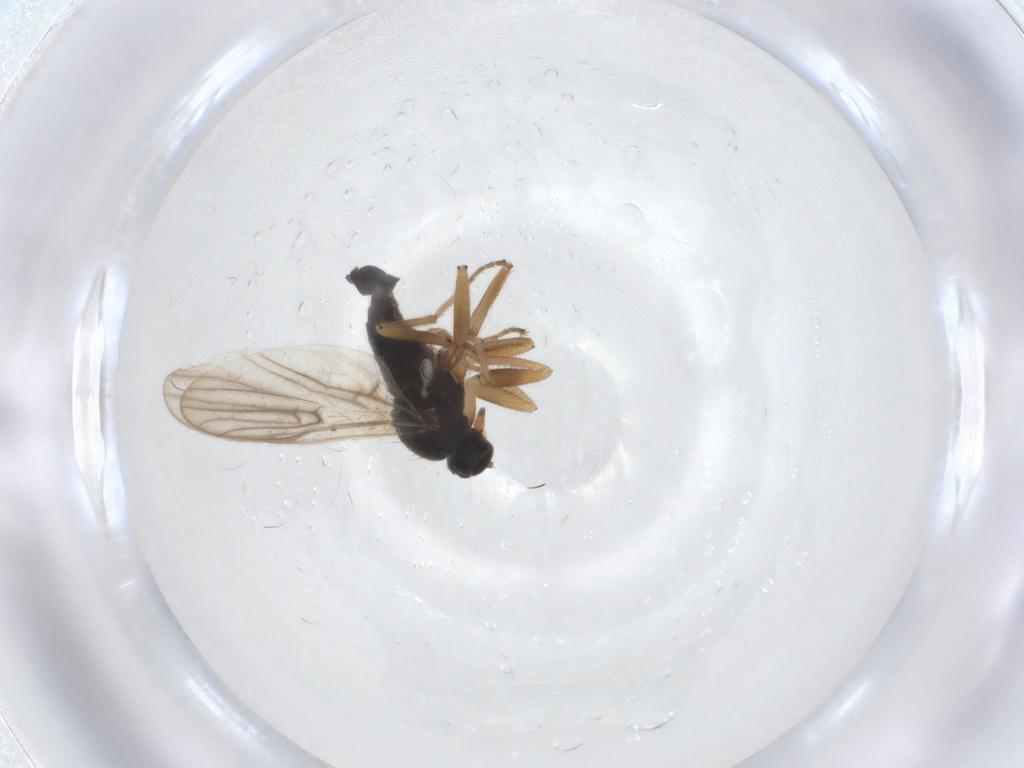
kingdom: Animalia
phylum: Arthropoda
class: Insecta
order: Diptera
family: Hybotidae
